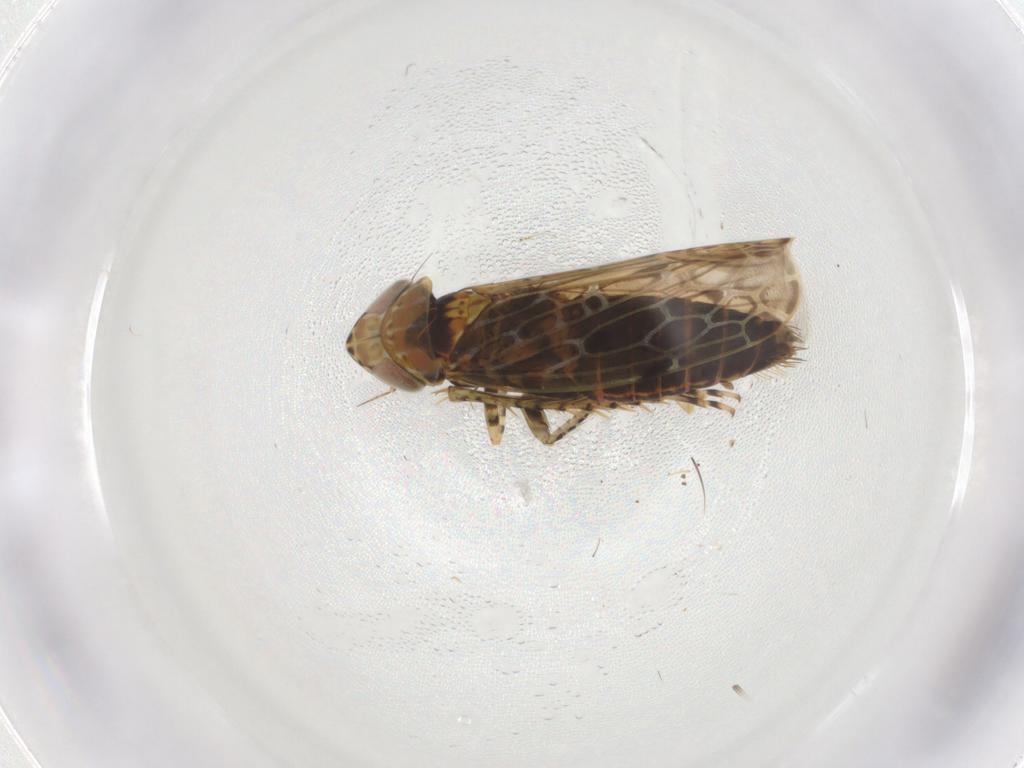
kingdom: Animalia
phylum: Arthropoda
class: Insecta
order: Hemiptera
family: Cicadellidae
